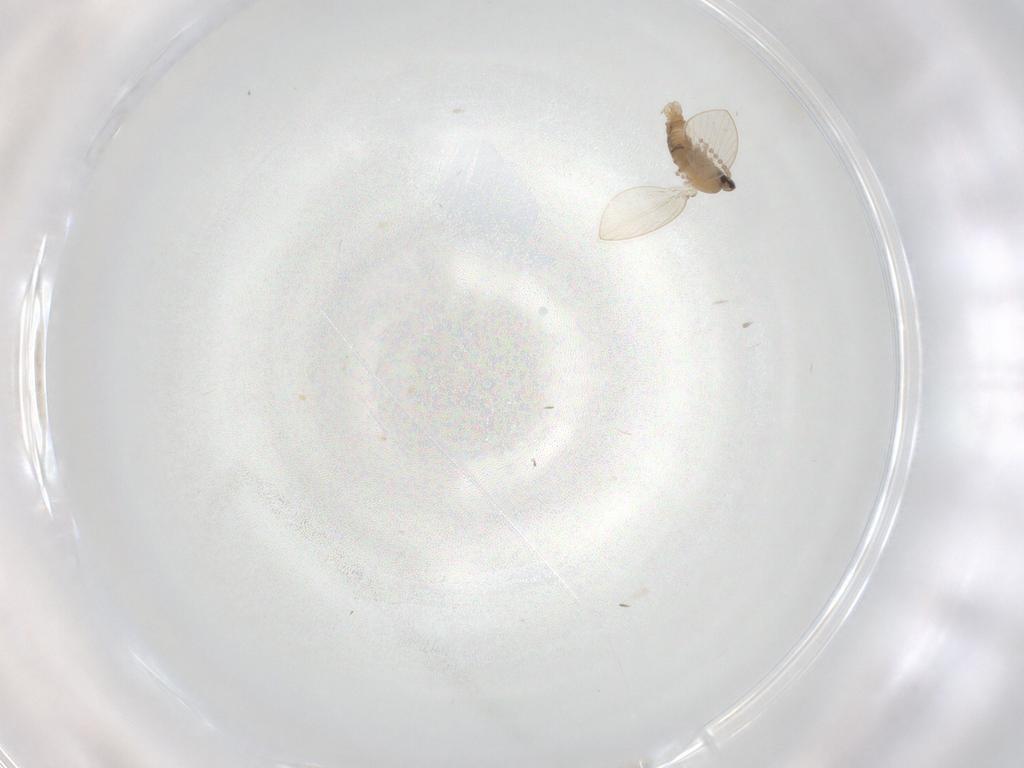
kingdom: Animalia
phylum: Arthropoda
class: Insecta
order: Diptera
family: Psychodidae
